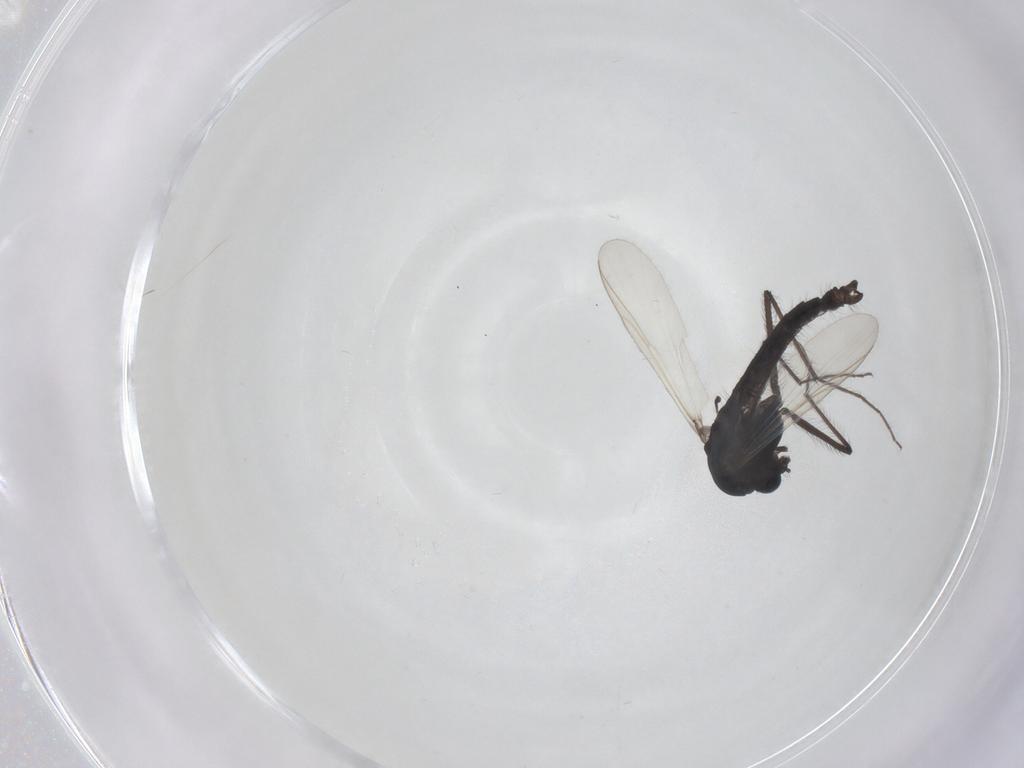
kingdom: Animalia
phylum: Arthropoda
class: Insecta
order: Diptera
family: Chironomidae
